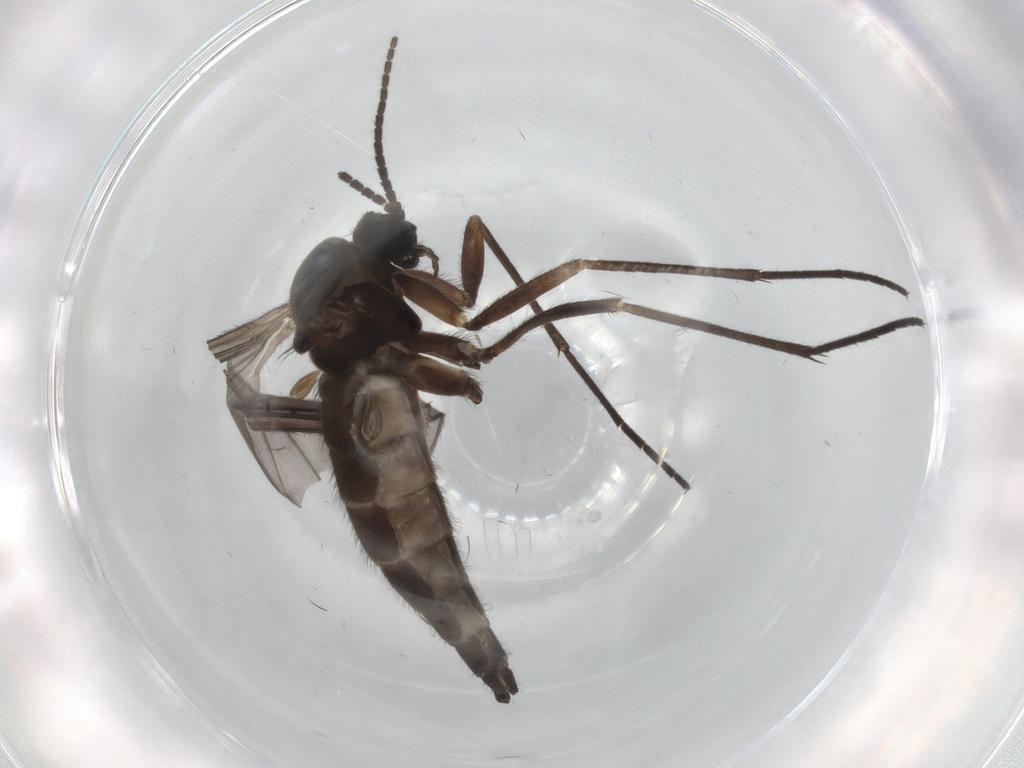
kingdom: Animalia
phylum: Arthropoda
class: Insecta
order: Diptera
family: Sciaridae
